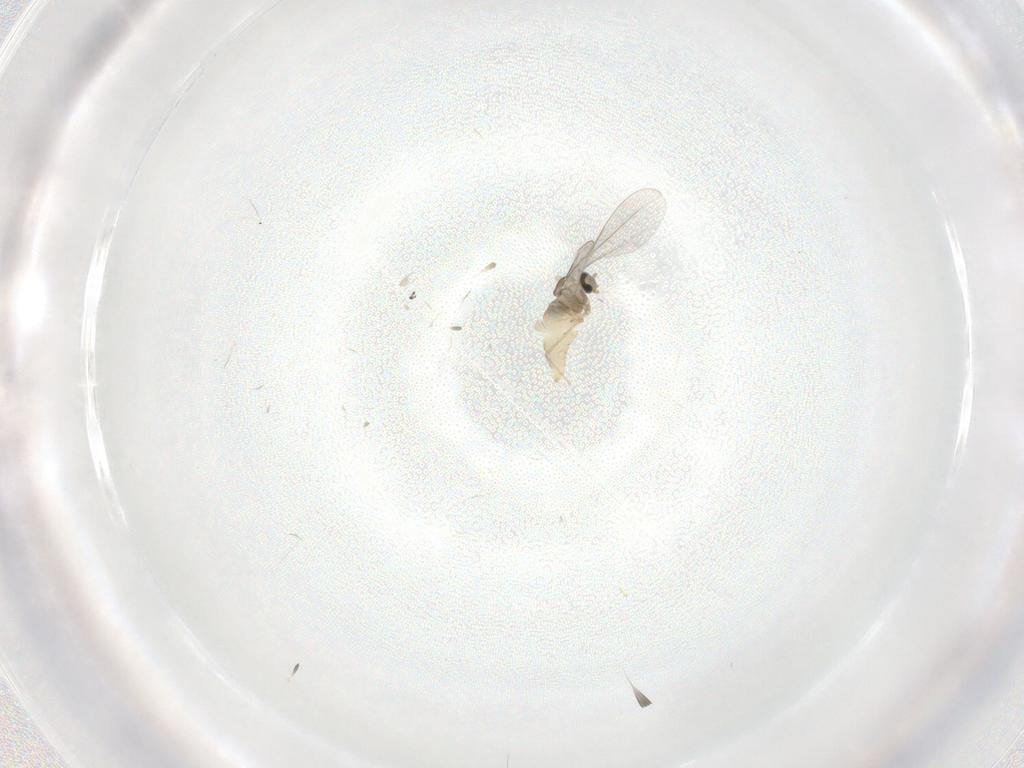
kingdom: Animalia
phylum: Arthropoda
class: Insecta
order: Diptera
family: Cecidomyiidae
